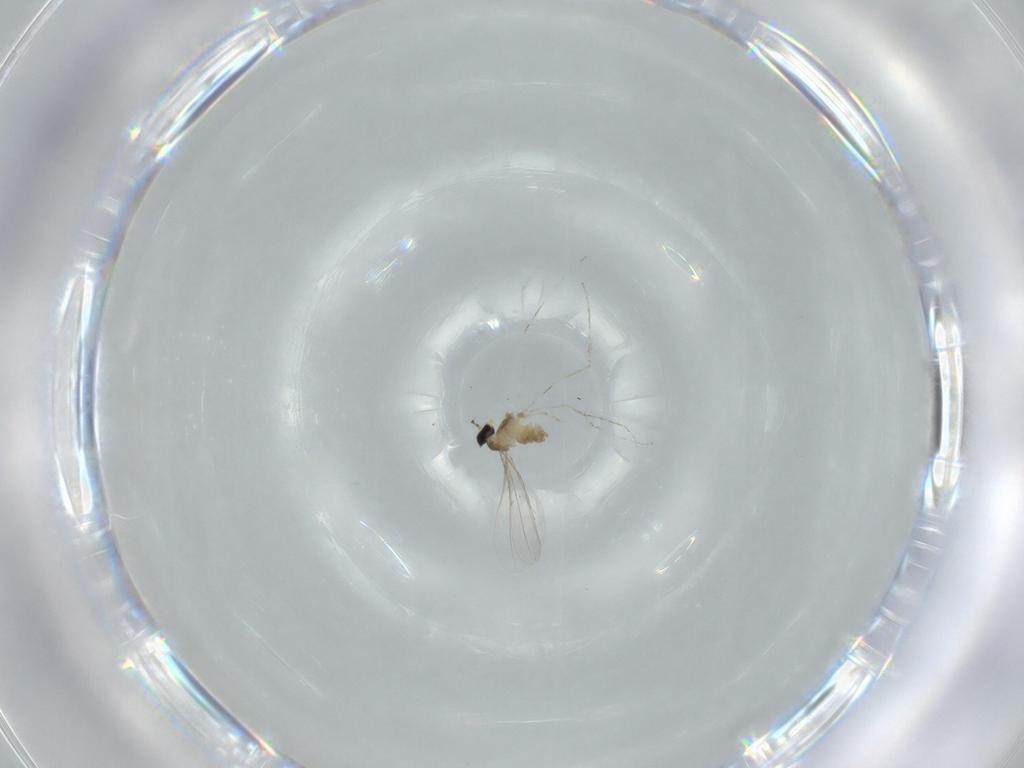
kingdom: Animalia
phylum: Arthropoda
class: Insecta
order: Diptera
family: Cecidomyiidae
